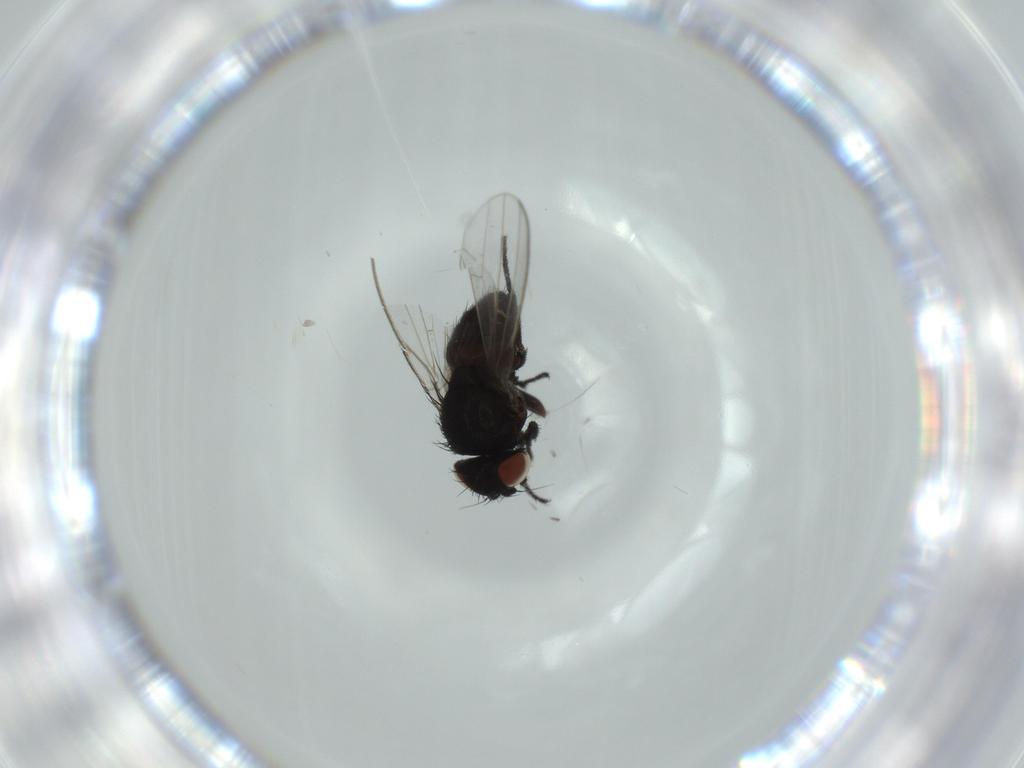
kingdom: Animalia
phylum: Arthropoda
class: Insecta
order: Diptera
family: Milichiidae
